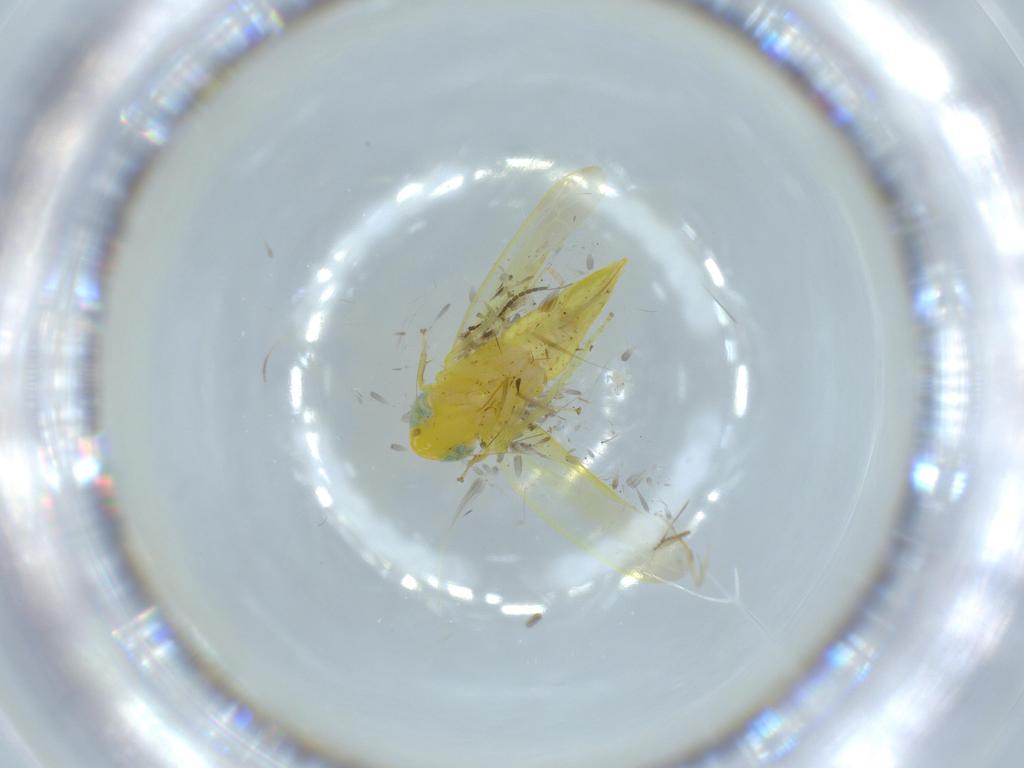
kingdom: Animalia
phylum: Arthropoda
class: Insecta
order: Hemiptera
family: Cicadellidae
